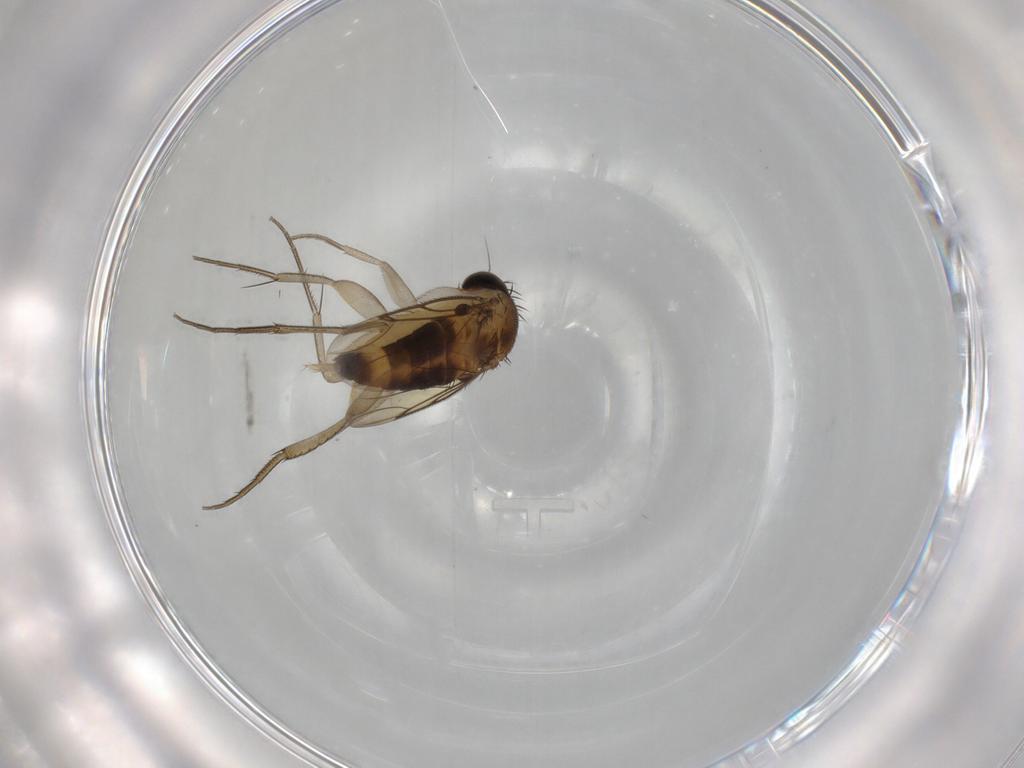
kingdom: Animalia
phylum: Arthropoda
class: Insecta
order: Diptera
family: Phoridae
